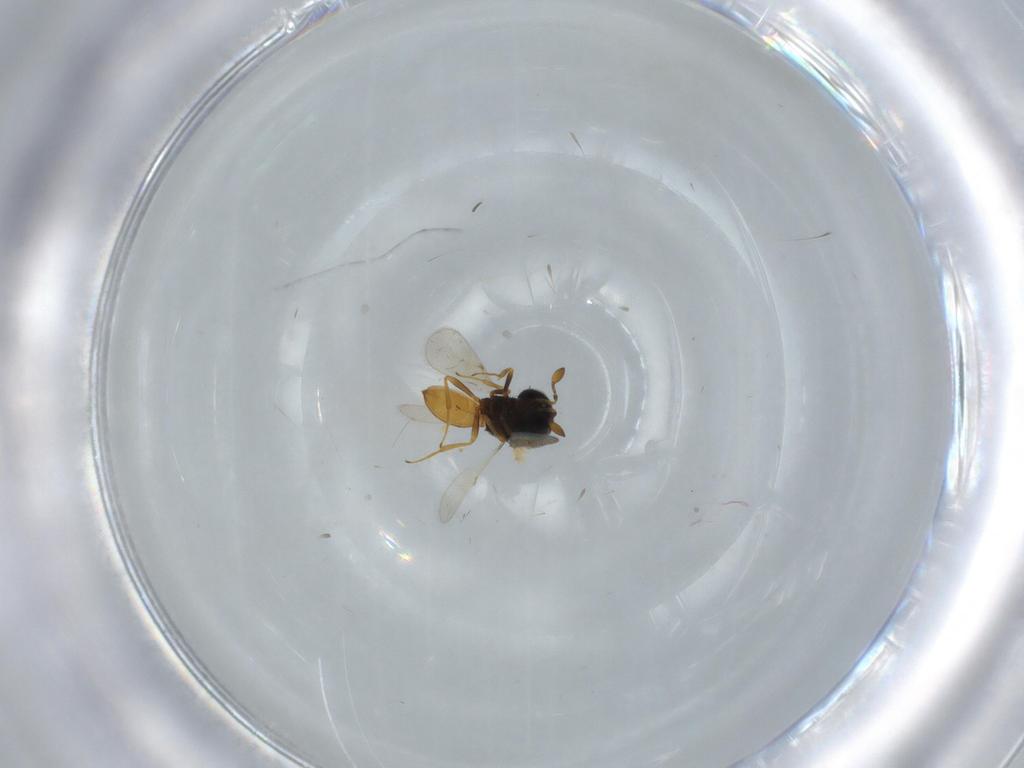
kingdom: Animalia
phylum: Arthropoda
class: Insecta
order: Hymenoptera
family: Scelionidae
